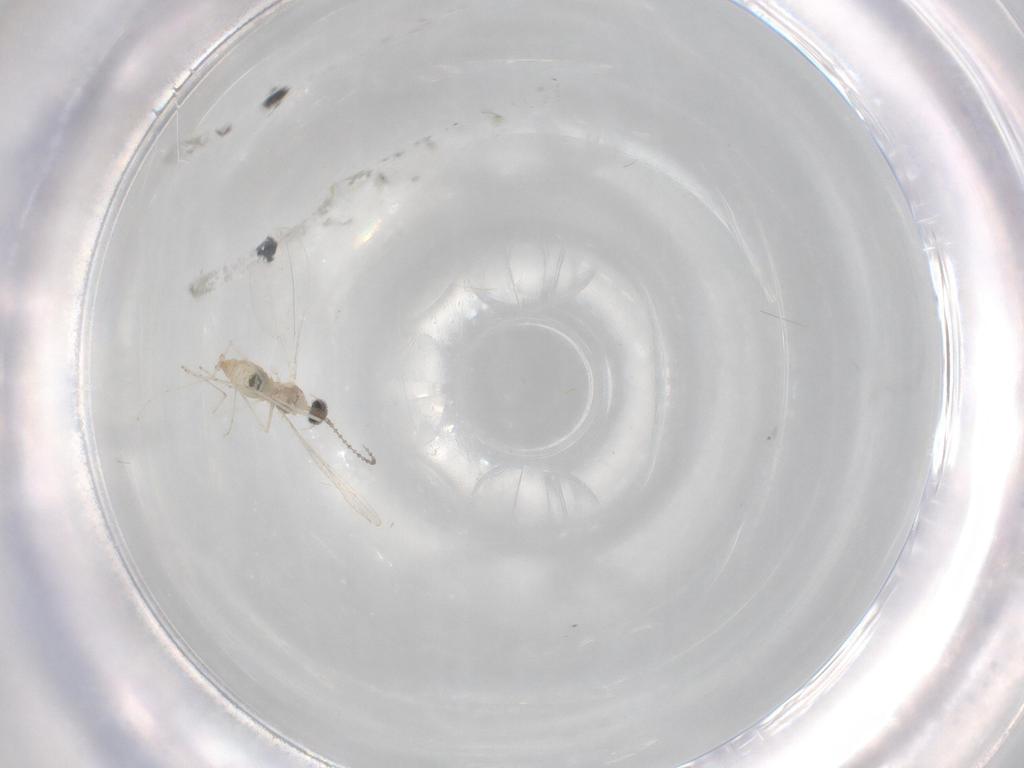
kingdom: Animalia
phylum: Arthropoda
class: Insecta
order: Diptera
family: Cecidomyiidae
